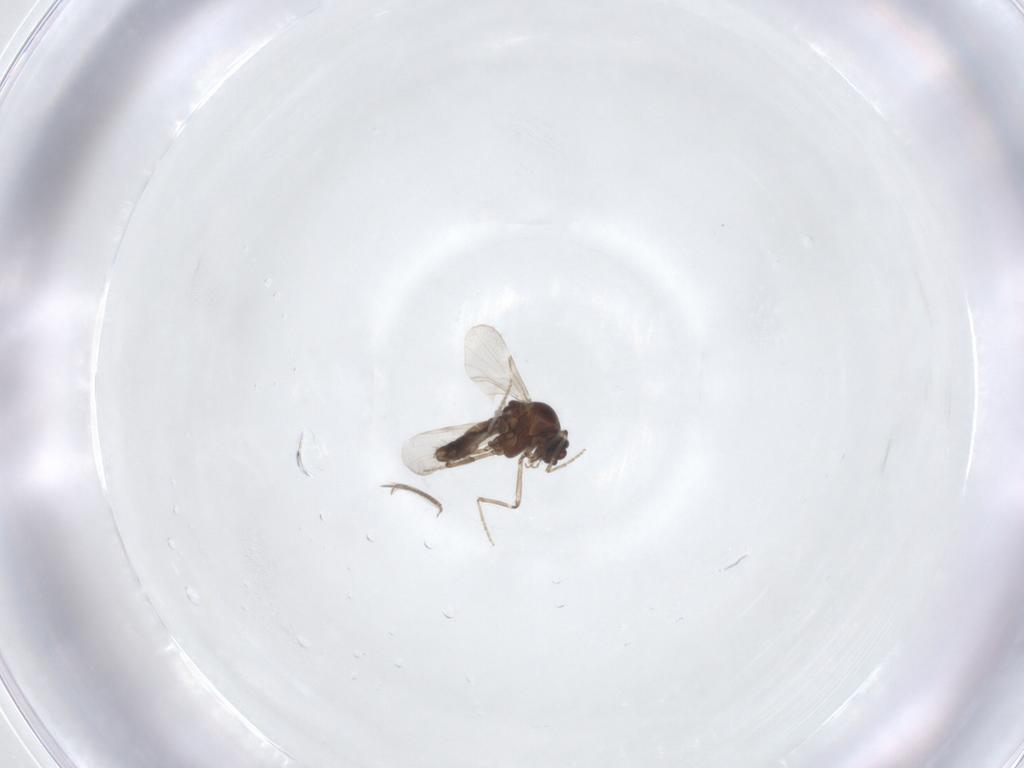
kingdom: Animalia
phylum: Arthropoda
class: Insecta
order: Diptera
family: Ceratopogonidae
